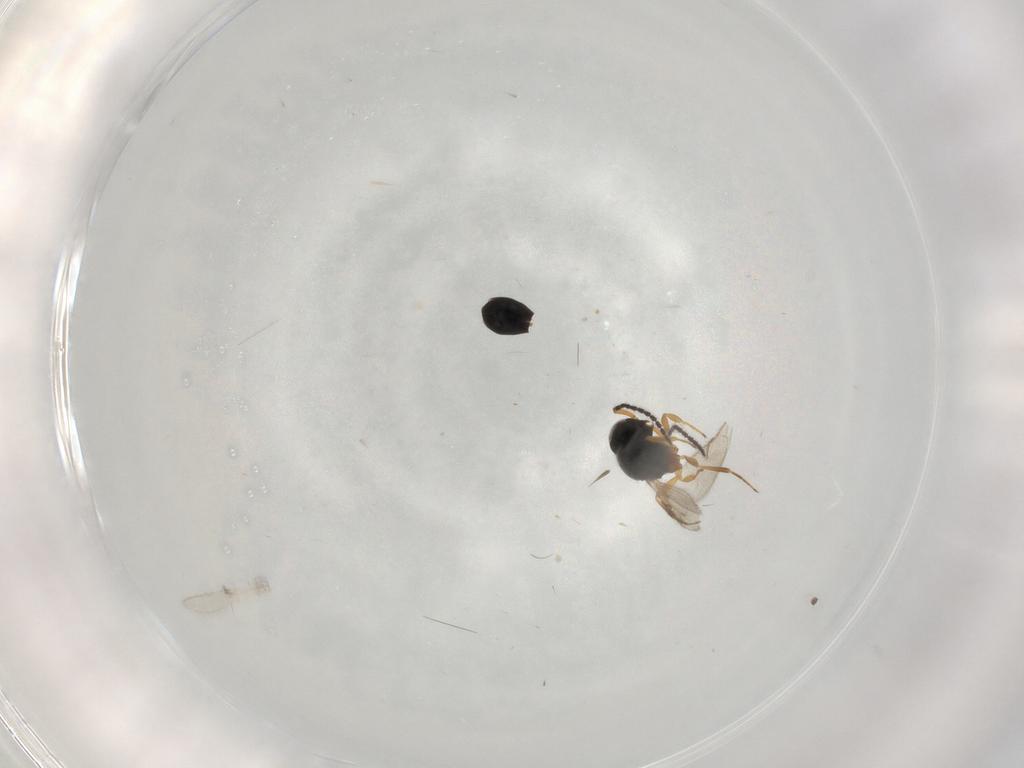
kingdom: Animalia
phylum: Arthropoda
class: Insecta
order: Hymenoptera
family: Scelionidae
